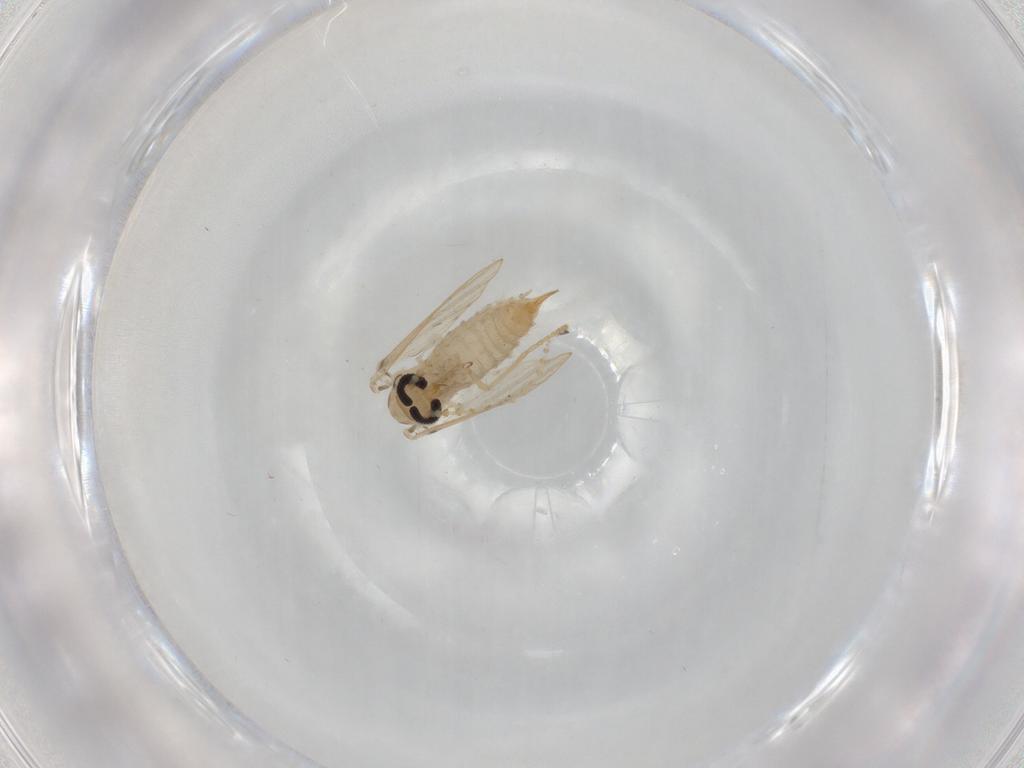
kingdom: Animalia
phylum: Arthropoda
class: Insecta
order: Diptera
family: Psychodidae
